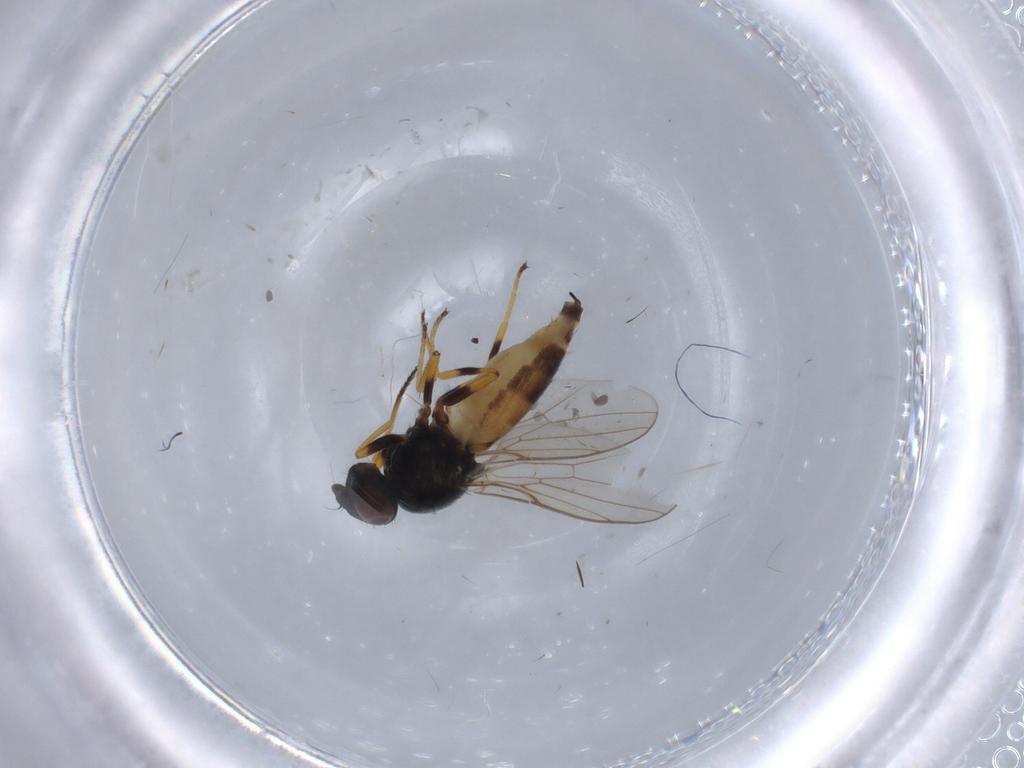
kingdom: Animalia
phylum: Arthropoda
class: Insecta
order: Diptera
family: Chloropidae
